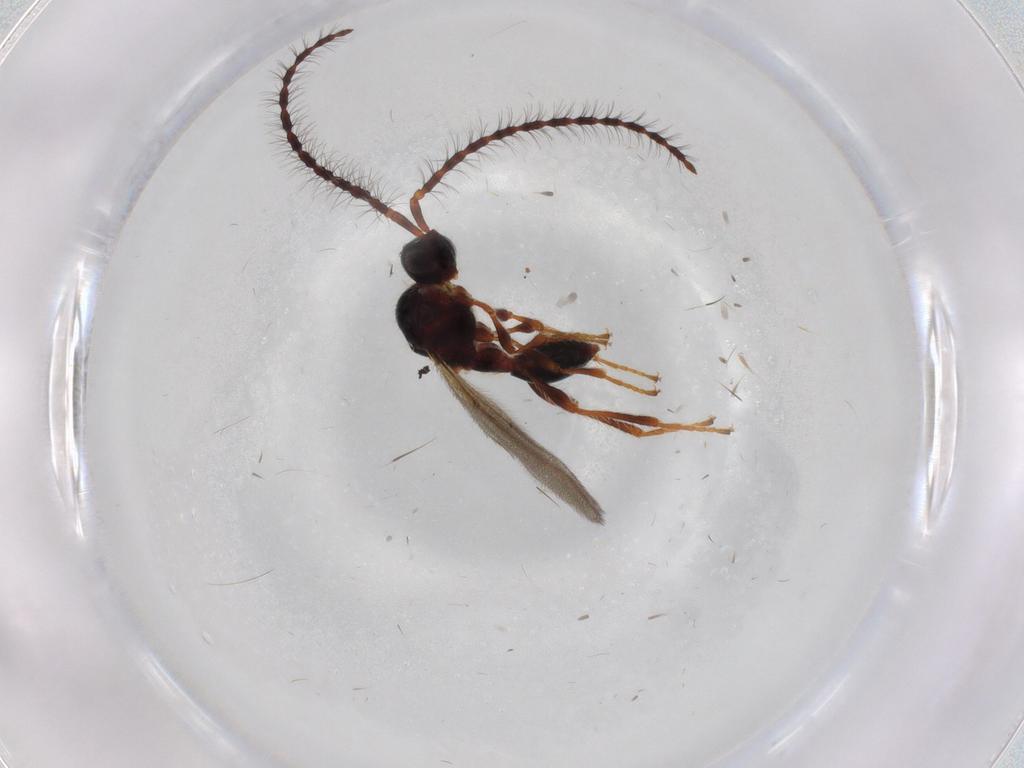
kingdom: Animalia
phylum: Arthropoda
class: Insecta
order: Hymenoptera
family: Diapriidae
